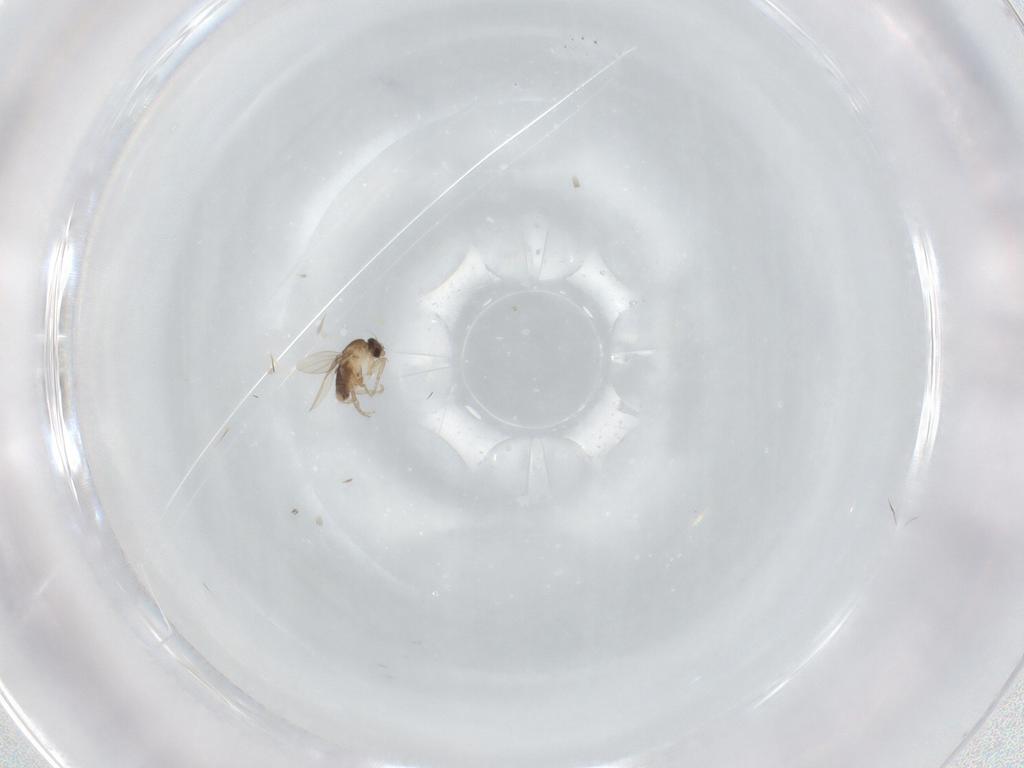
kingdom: Animalia
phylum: Arthropoda
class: Insecta
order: Diptera
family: Phoridae
